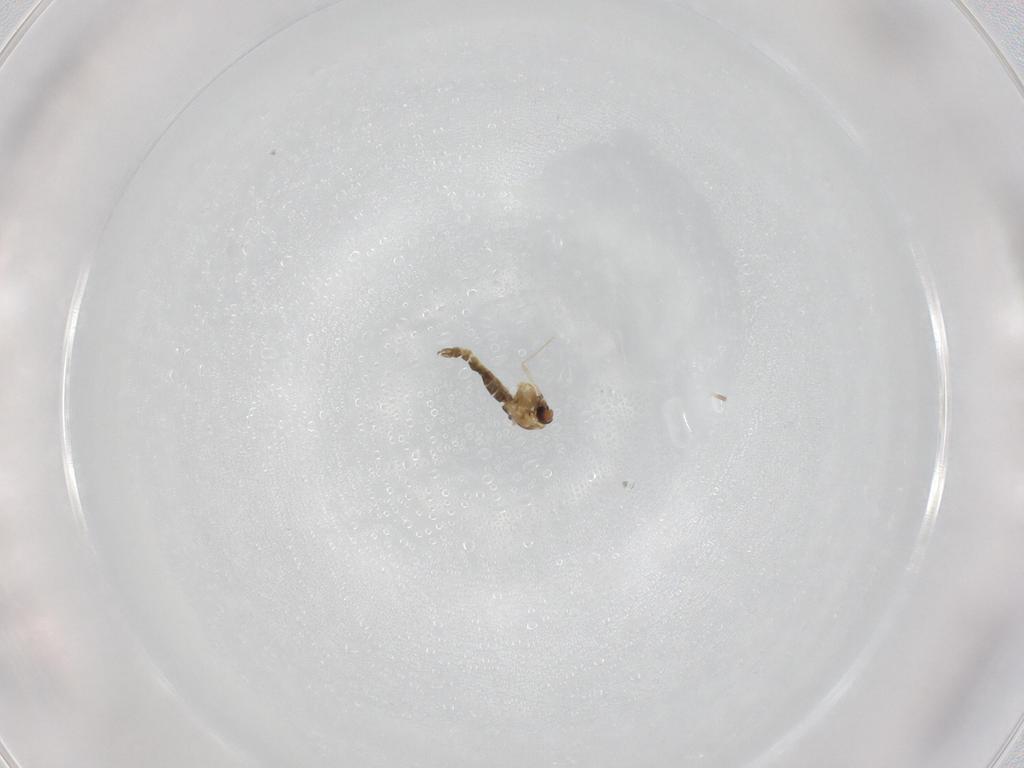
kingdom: Animalia
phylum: Arthropoda
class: Insecta
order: Diptera
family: Chironomidae
